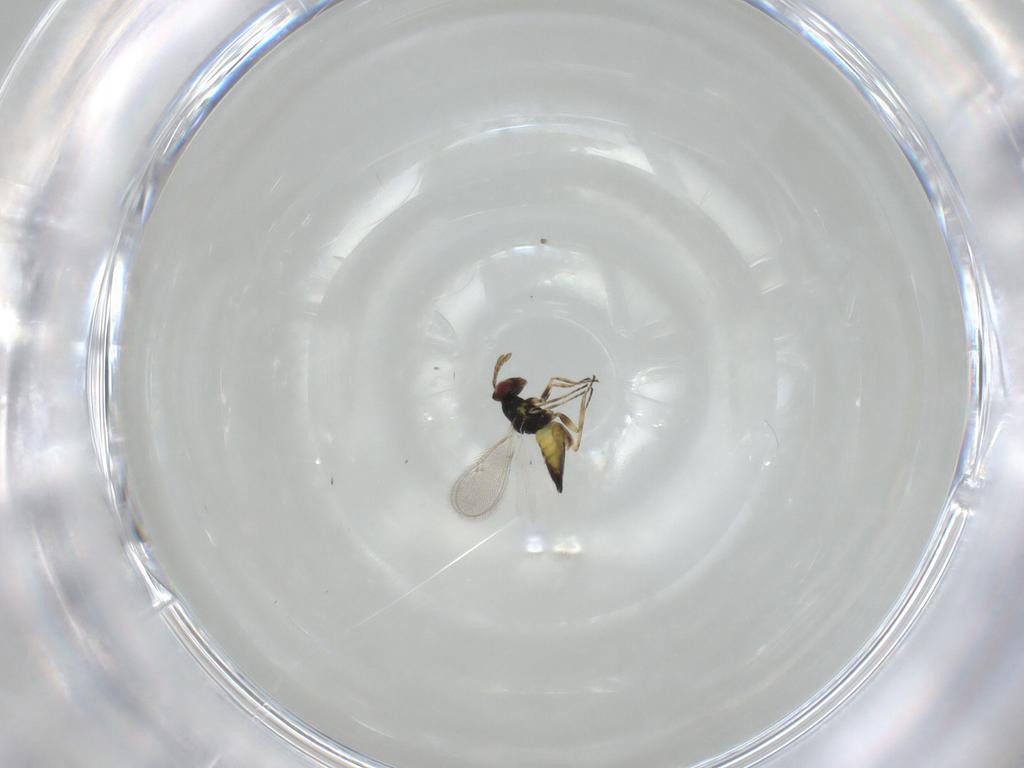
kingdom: Animalia
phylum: Arthropoda
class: Insecta
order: Hymenoptera
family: Eulophidae
